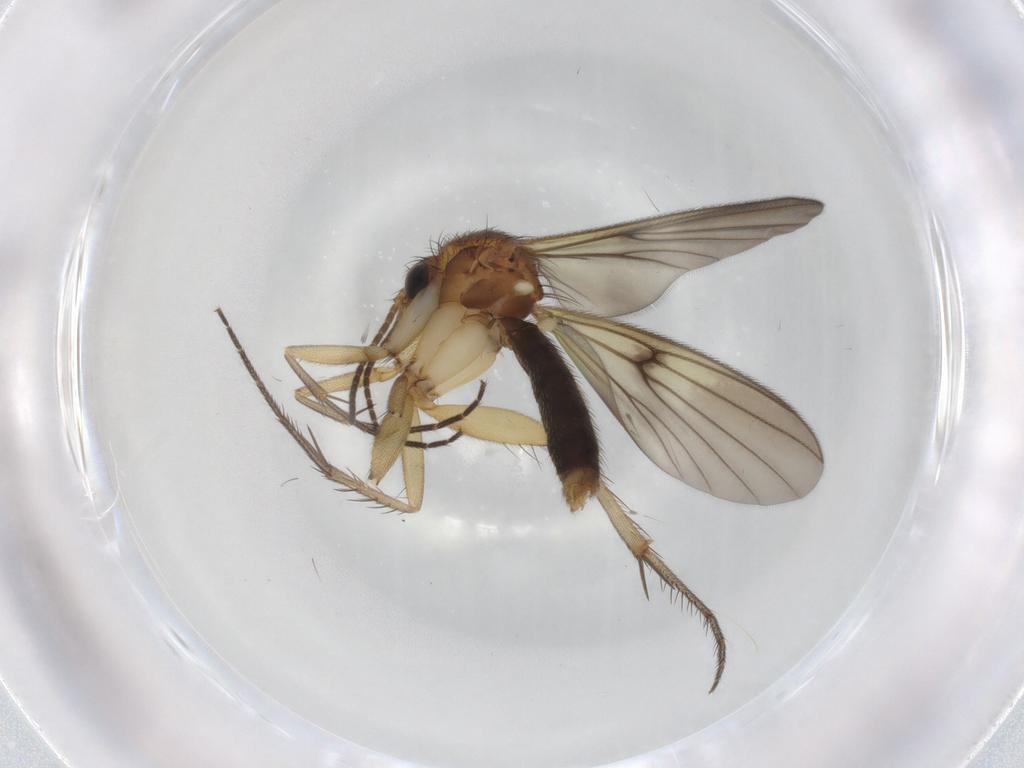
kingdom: Animalia
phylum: Arthropoda
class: Insecta
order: Diptera
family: Mycetophilidae
